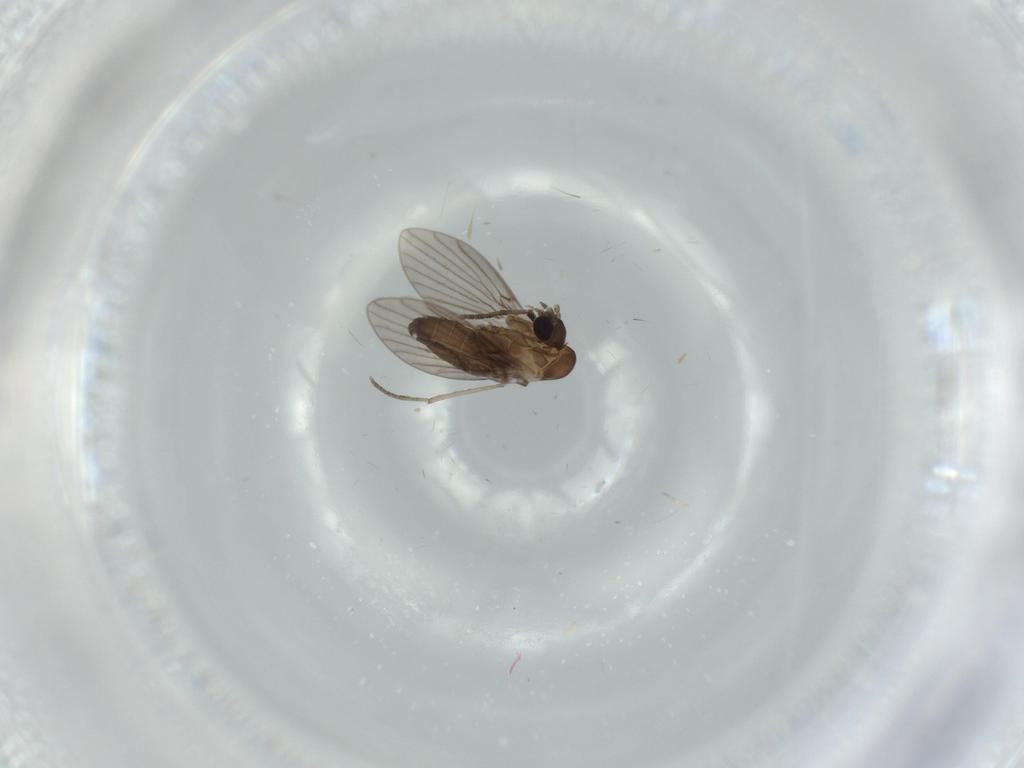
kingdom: Animalia
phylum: Arthropoda
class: Insecta
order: Diptera
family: Psychodidae
